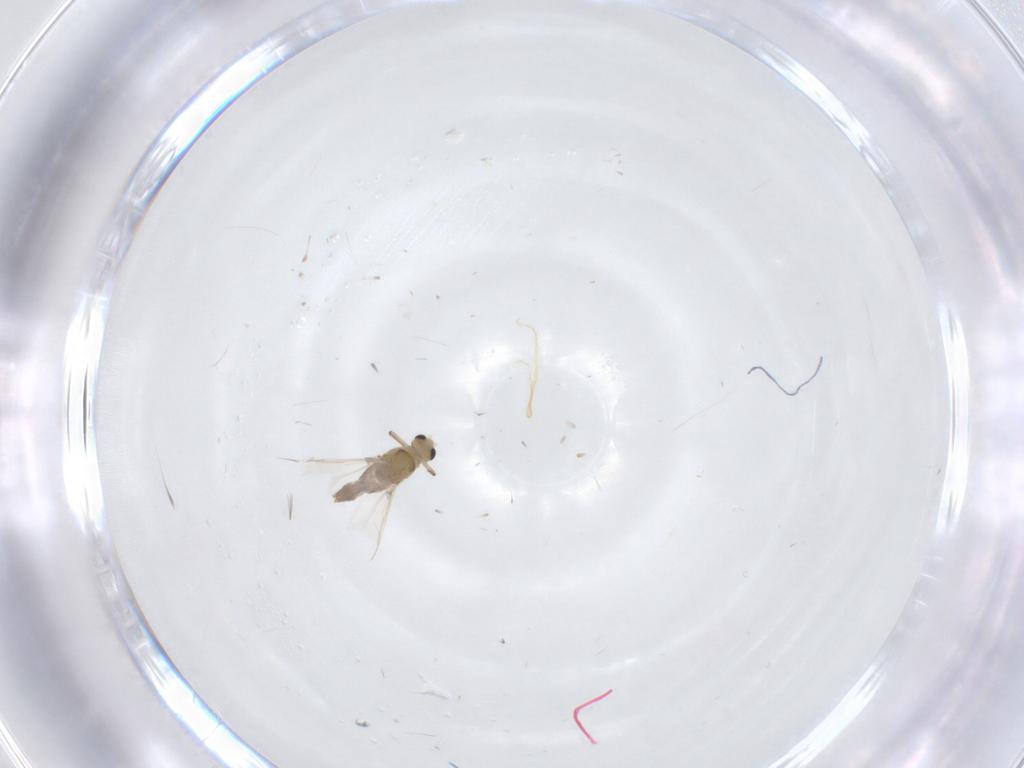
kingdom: Animalia
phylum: Arthropoda
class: Insecta
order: Diptera
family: Chironomidae
